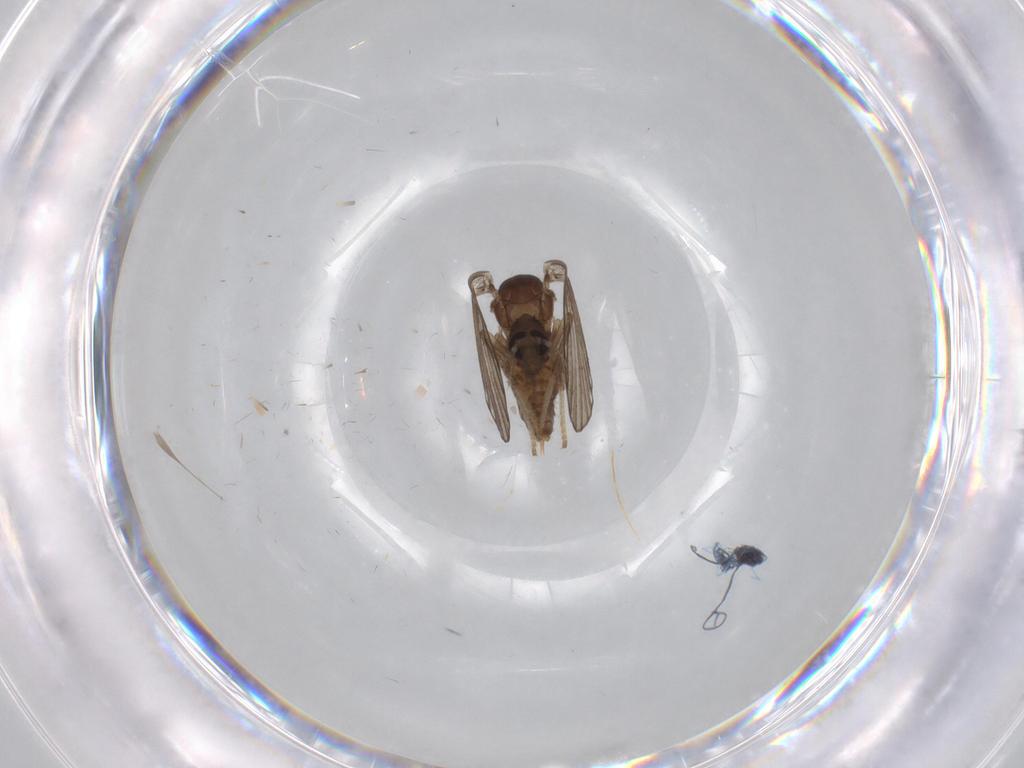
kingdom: Animalia
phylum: Arthropoda
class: Insecta
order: Diptera
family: Psychodidae
